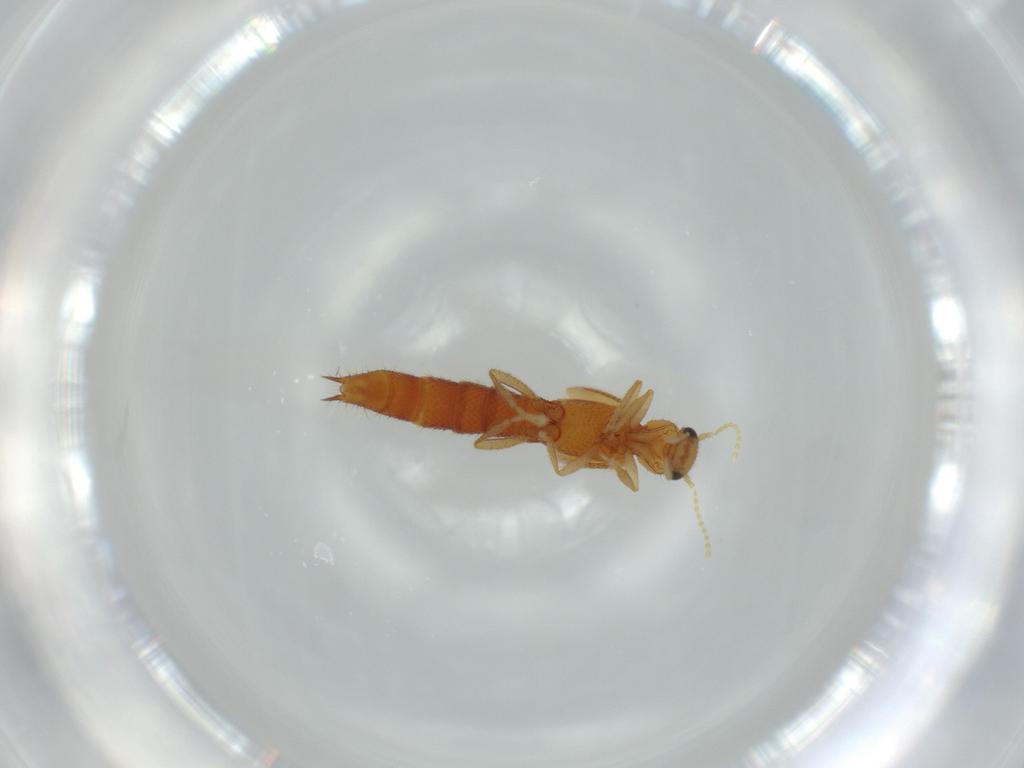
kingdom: Animalia
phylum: Arthropoda
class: Insecta
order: Coleoptera
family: Staphylinidae
